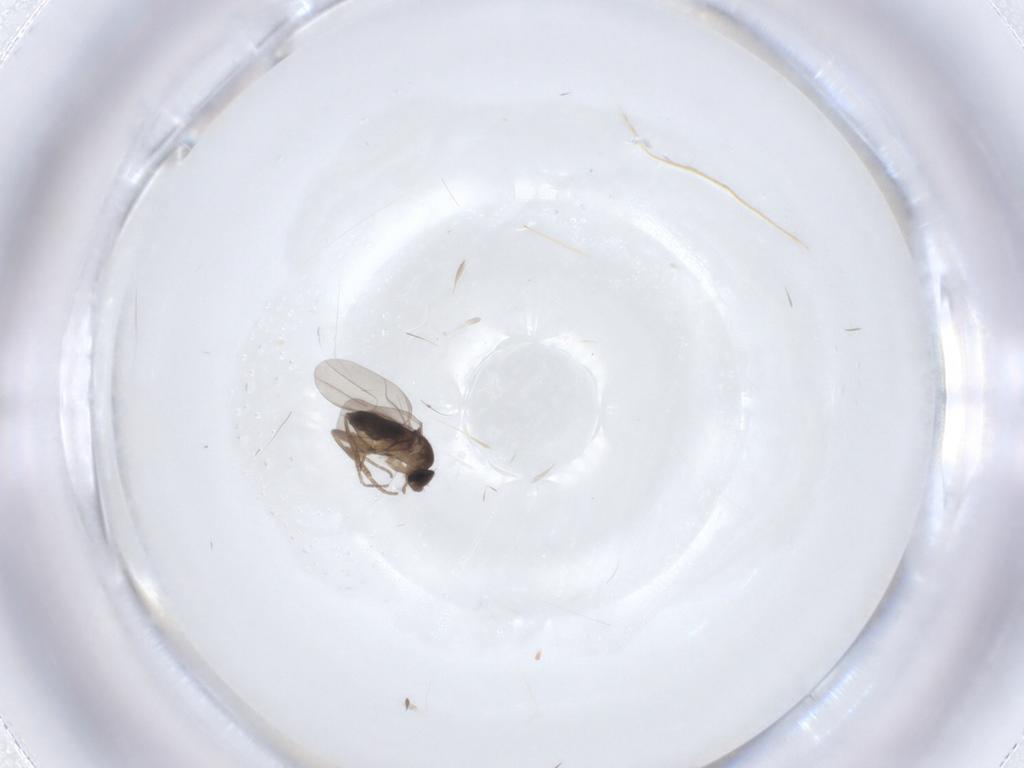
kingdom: Animalia
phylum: Arthropoda
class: Insecta
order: Diptera
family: Phoridae
